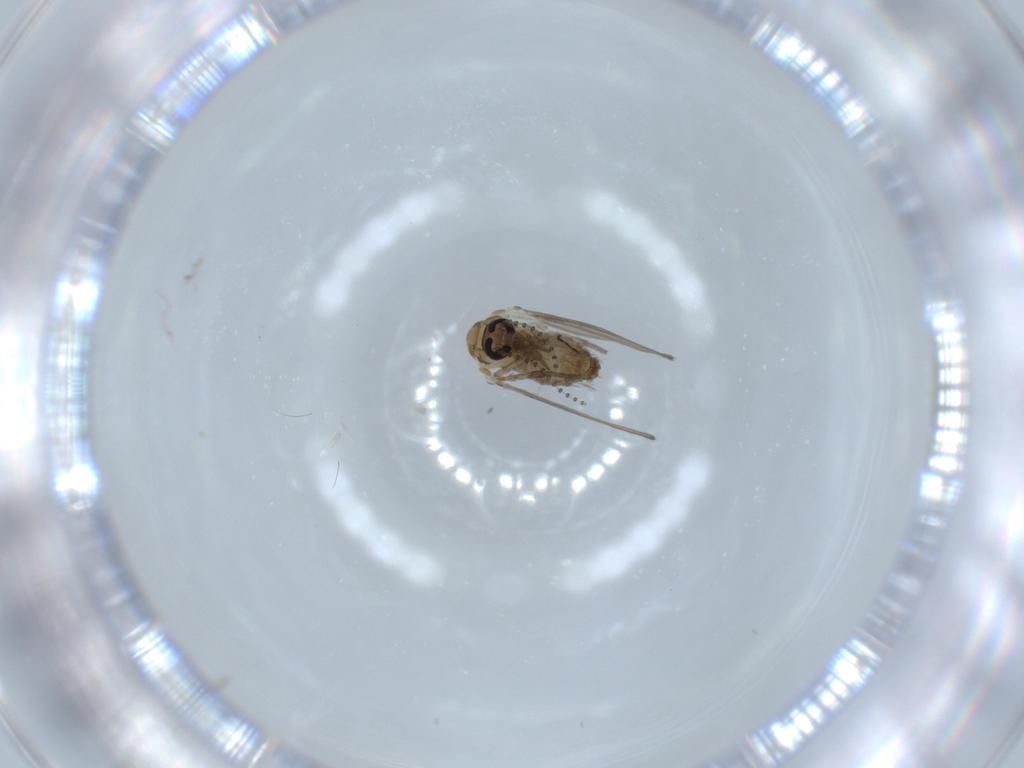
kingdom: Animalia
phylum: Arthropoda
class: Insecta
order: Diptera
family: Psychodidae
